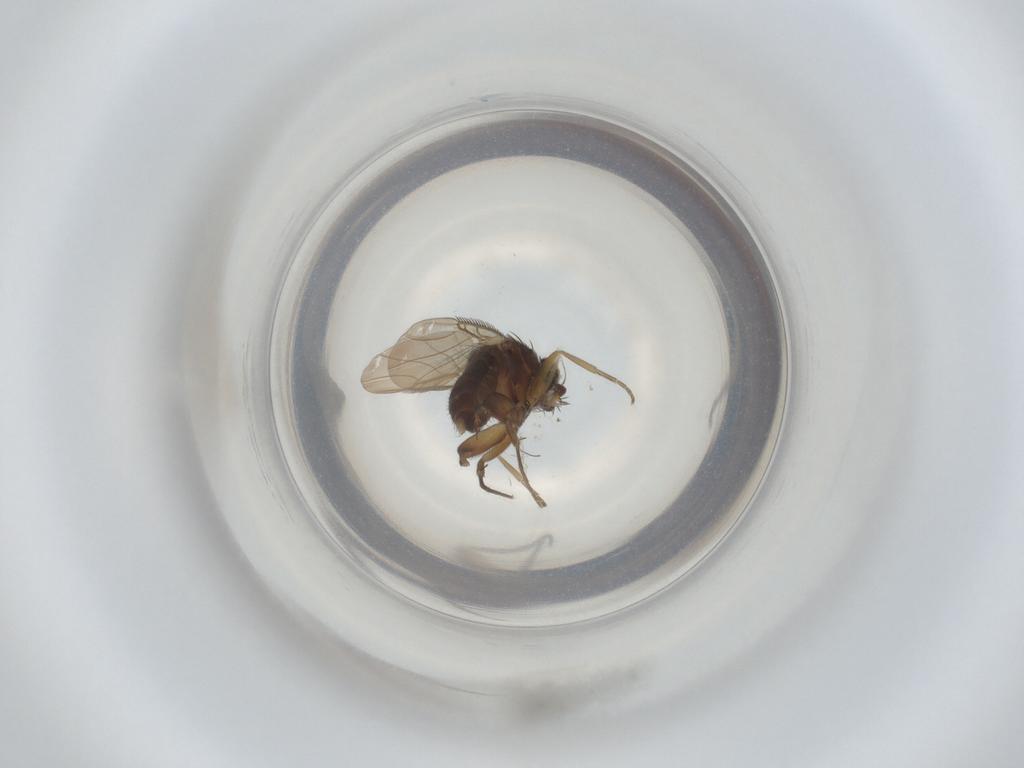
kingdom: Animalia
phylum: Arthropoda
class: Insecta
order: Diptera
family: Phoridae
